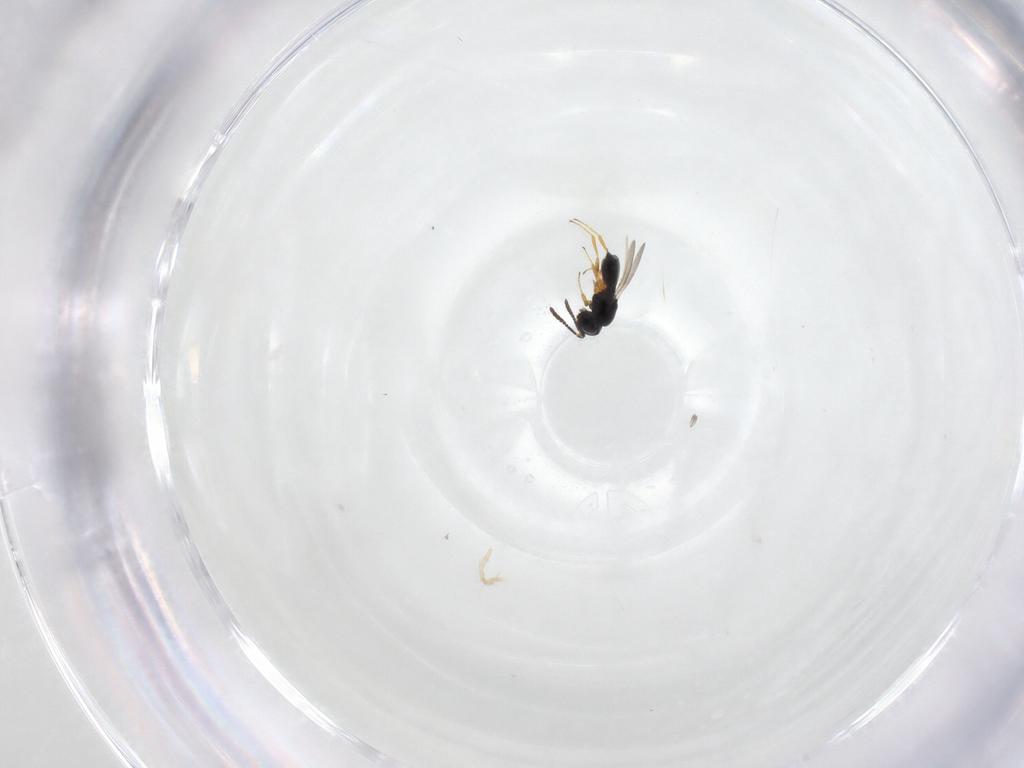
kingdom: Animalia
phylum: Arthropoda
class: Insecta
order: Hymenoptera
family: Scelionidae
